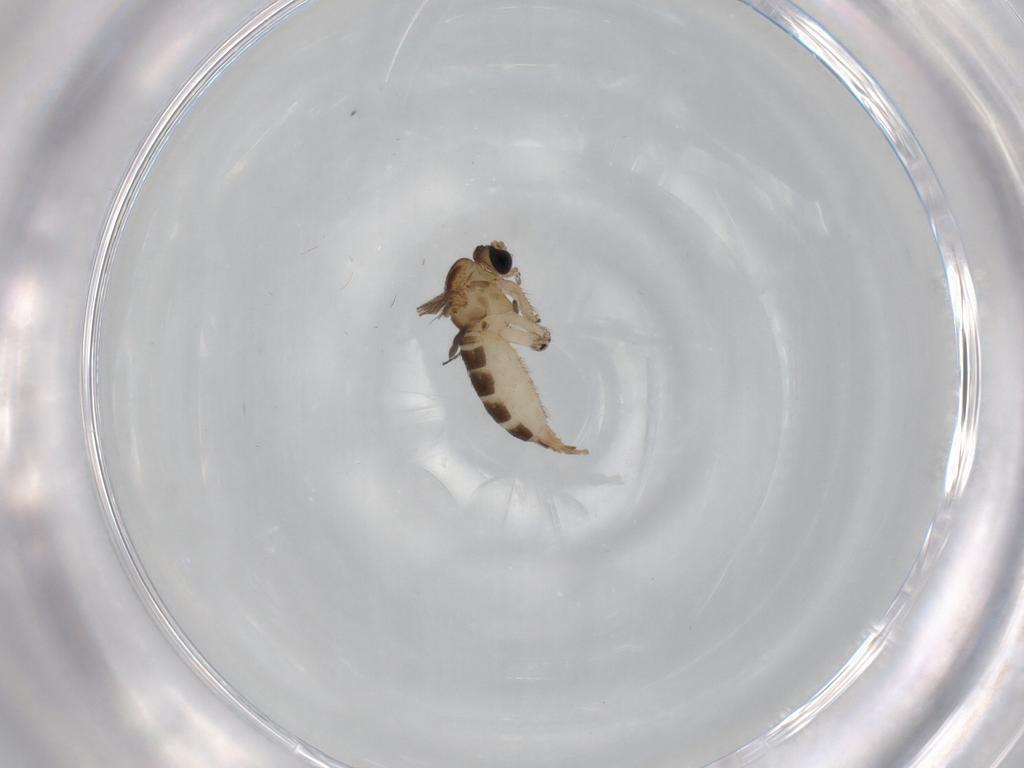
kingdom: Animalia
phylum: Arthropoda
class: Insecta
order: Diptera
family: Sciaridae
